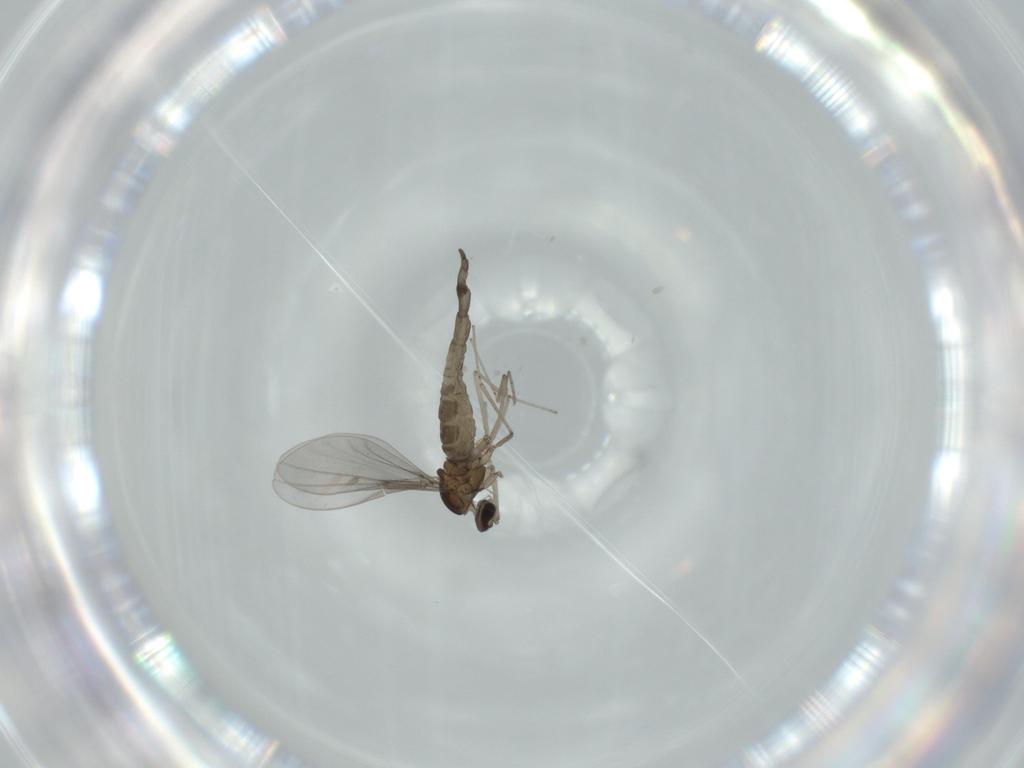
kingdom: Animalia
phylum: Arthropoda
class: Insecta
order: Diptera
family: Cecidomyiidae
